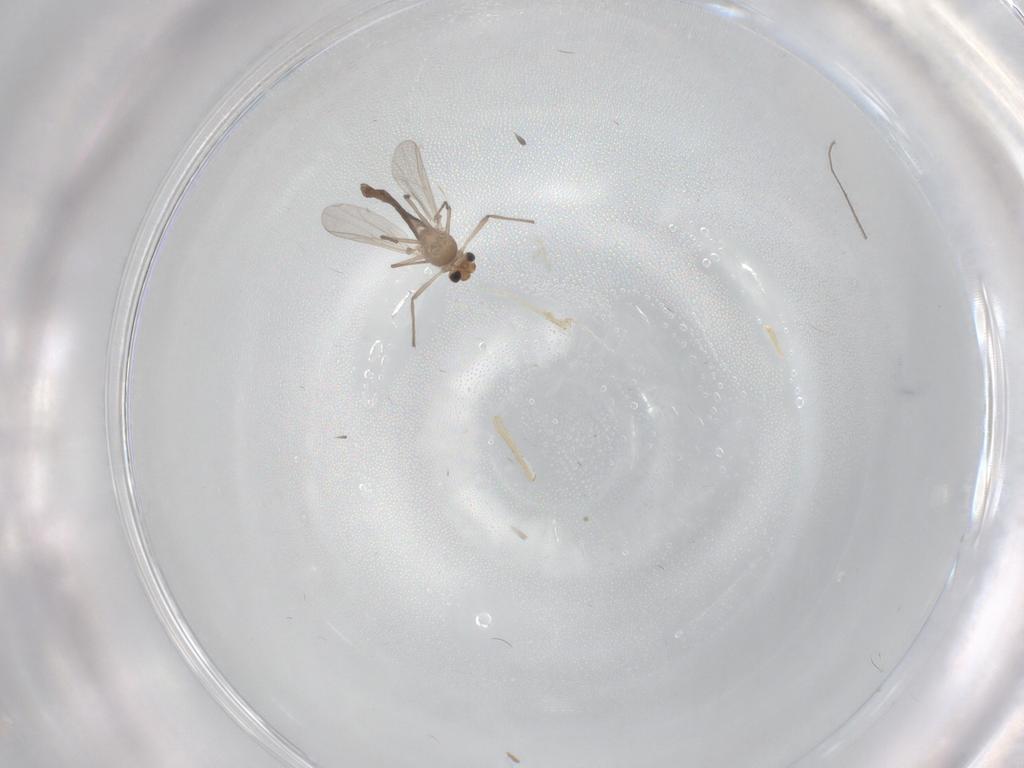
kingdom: Animalia
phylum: Arthropoda
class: Insecta
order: Diptera
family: Chironomidae
